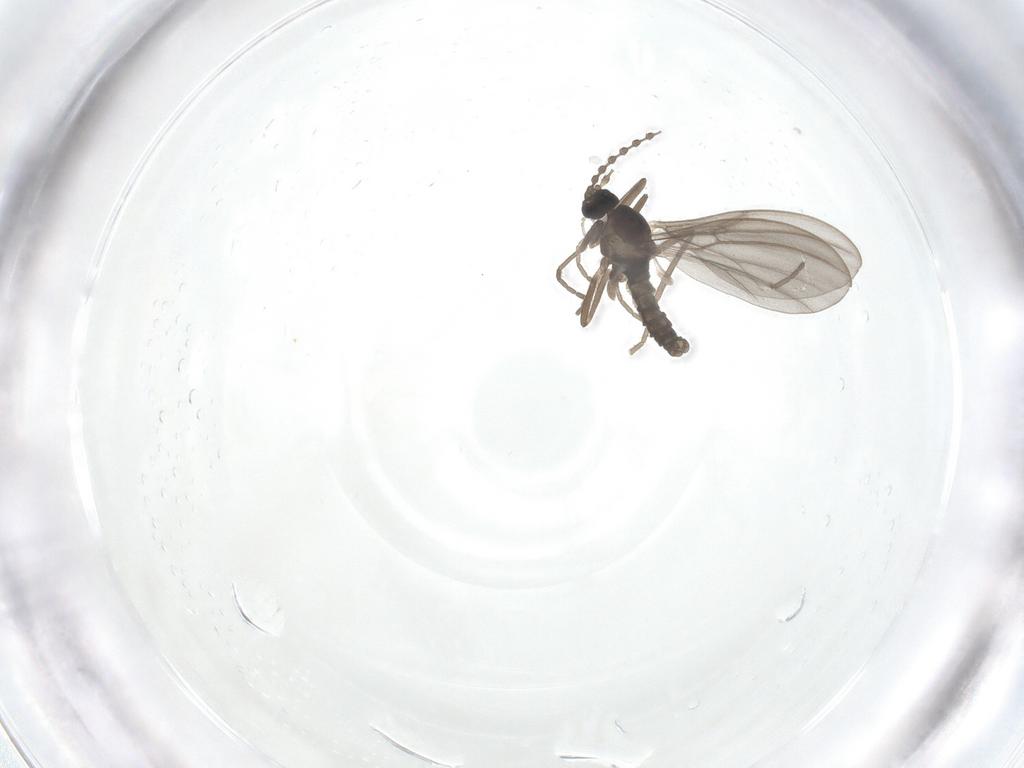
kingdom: Animalia
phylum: Arthropoda
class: Insecta
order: Diptera
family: Cecidomyiidae
